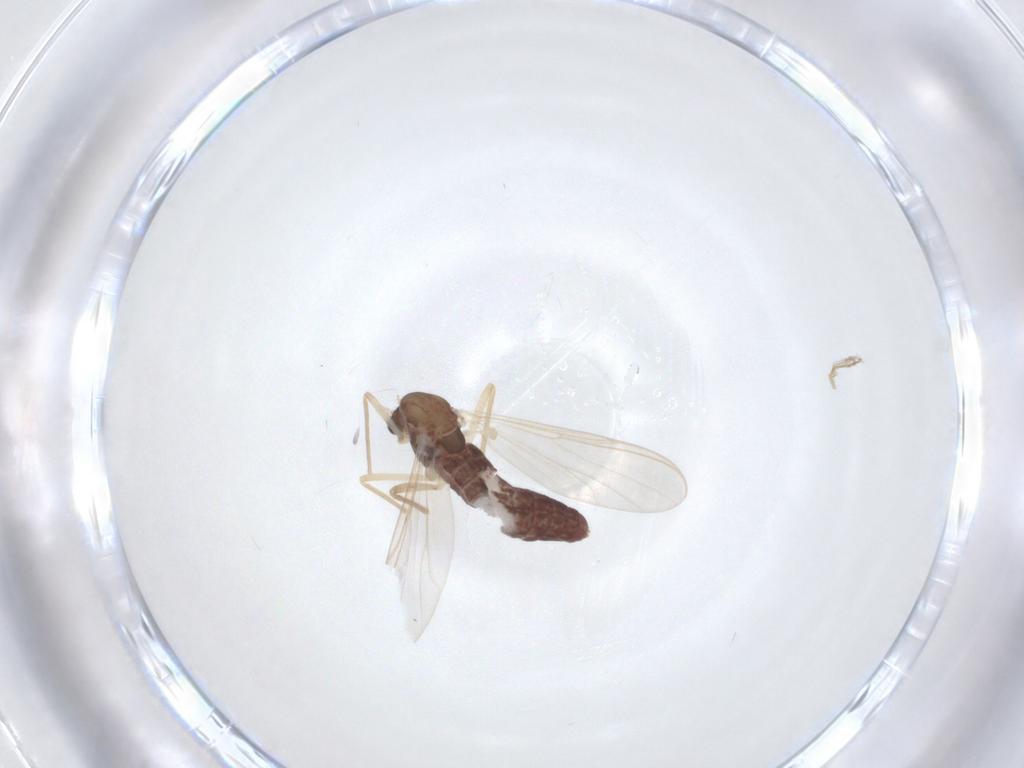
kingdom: Animalia
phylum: Arthropoda
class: Insecta
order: Diptera
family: Chironomidae
